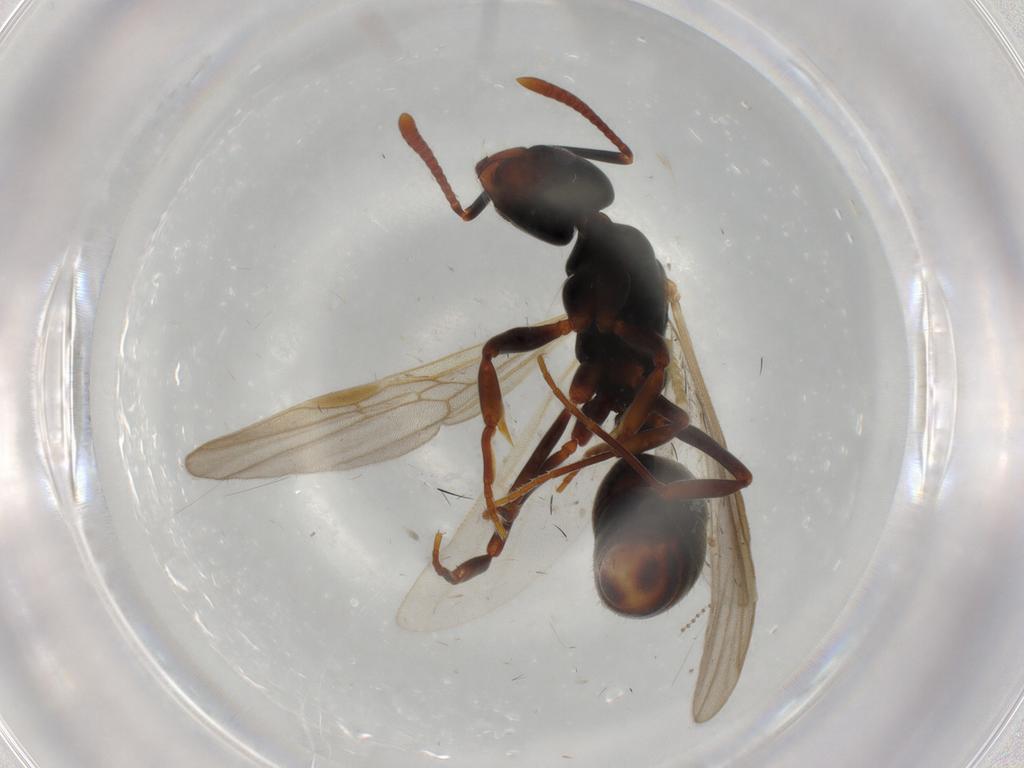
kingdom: Animalia
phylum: Arthropoda
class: Insecta
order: Hymenoptera
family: Formicidae
